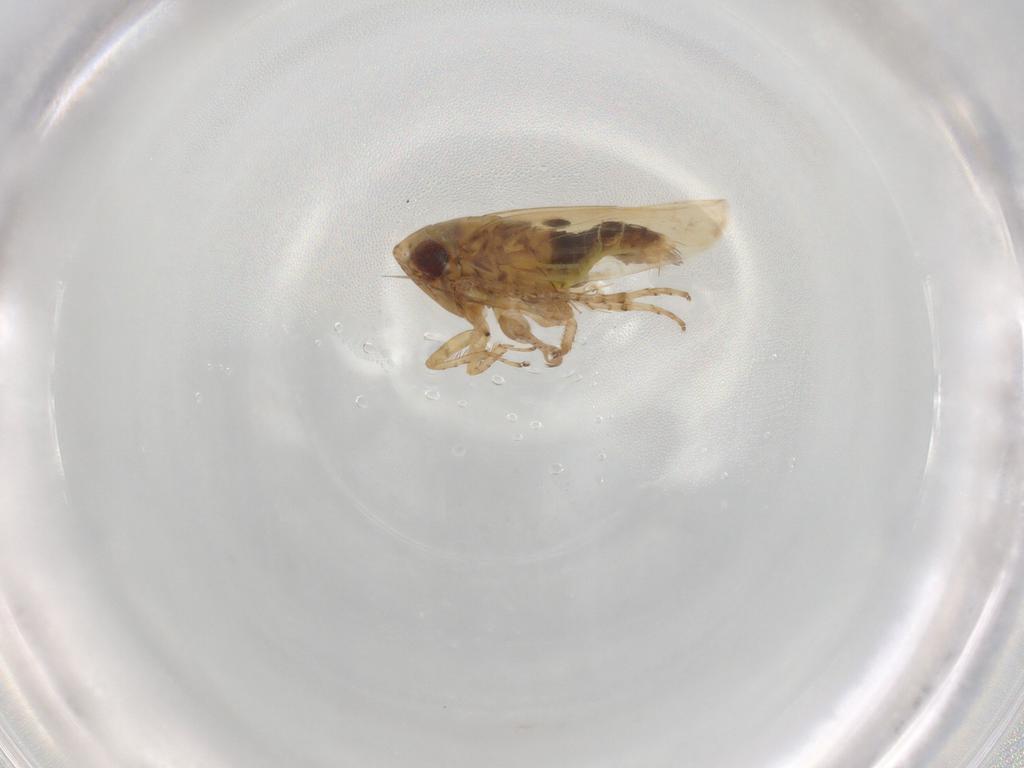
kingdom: Animalia
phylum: Arthropoda
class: Insecta
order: Hemiptera
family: Cicadellidae
